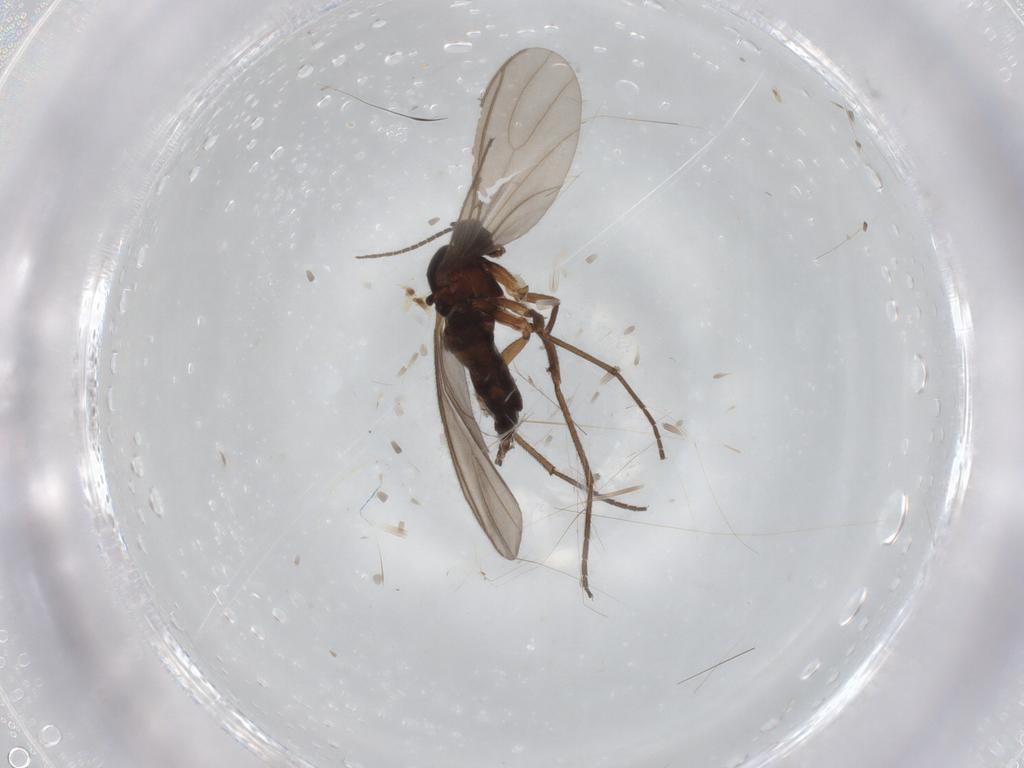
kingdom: Animalia
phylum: Arthropoda
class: Insecta
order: Diptera
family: Sciaridae
